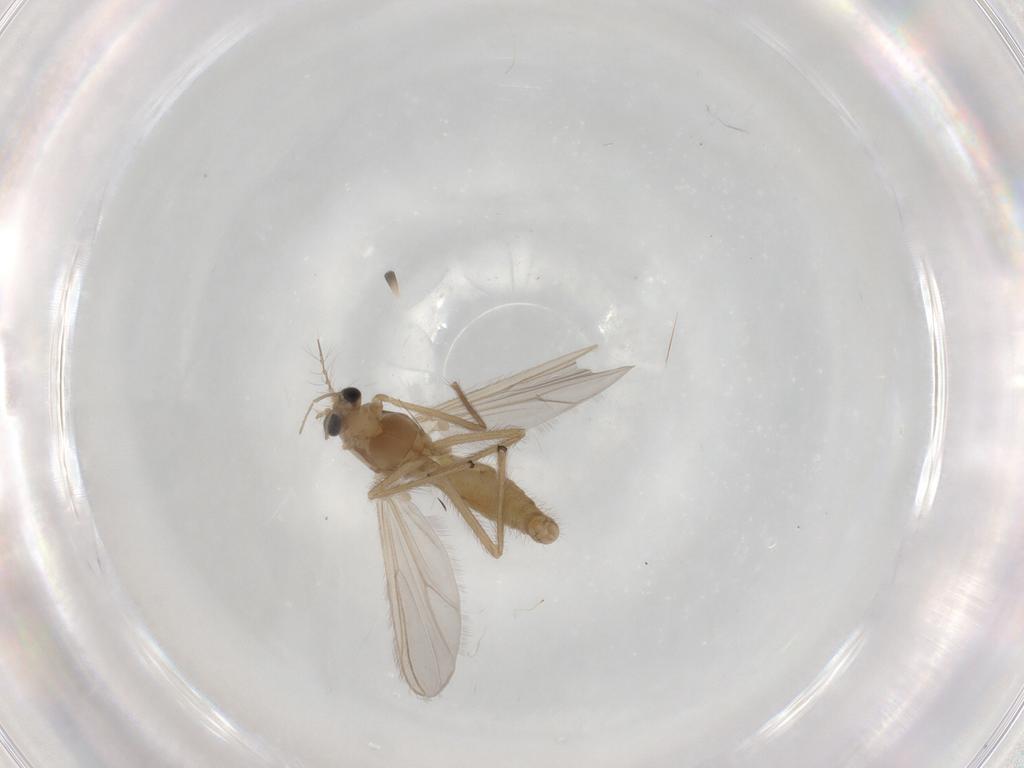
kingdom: Animalia
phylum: Arthropoda
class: Insecta
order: Diptera
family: Chironomidae
